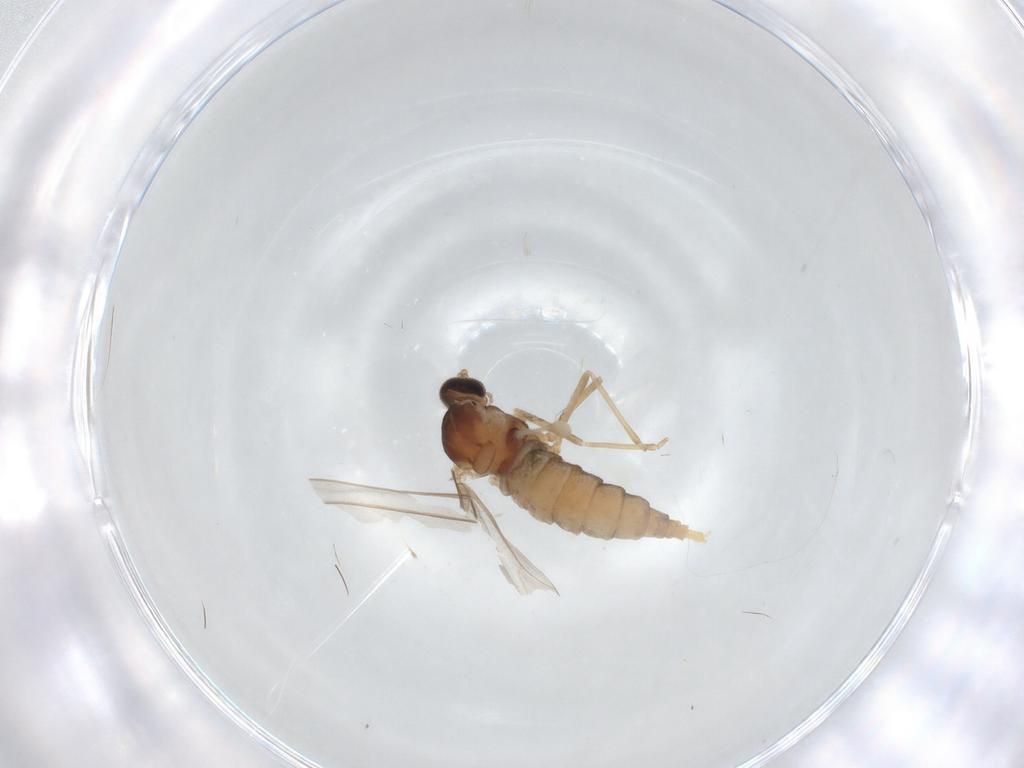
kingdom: Animalia
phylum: Arthropoda
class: Insecta
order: Diptera
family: Cecidomyiidae
